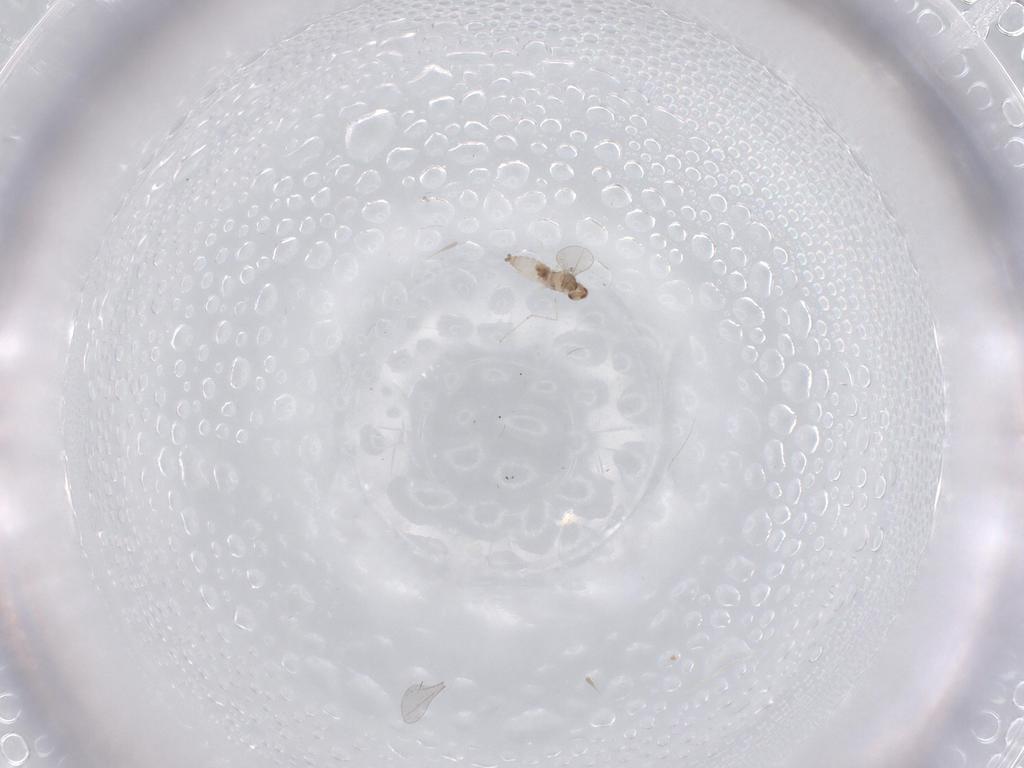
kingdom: Animalia
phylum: Arthropoda
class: Insecta
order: Diptera
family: Cecidomyiidae
